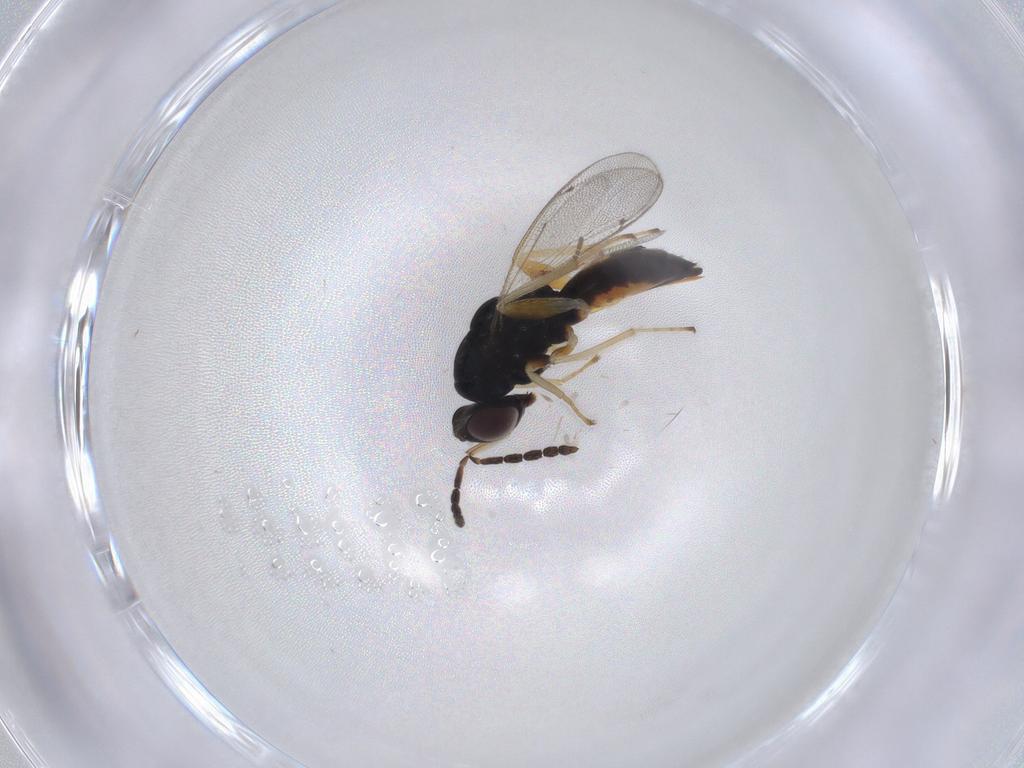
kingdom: Animalia
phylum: Arthropoda
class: Insecta
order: Hymenoptera
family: Eulophidae
